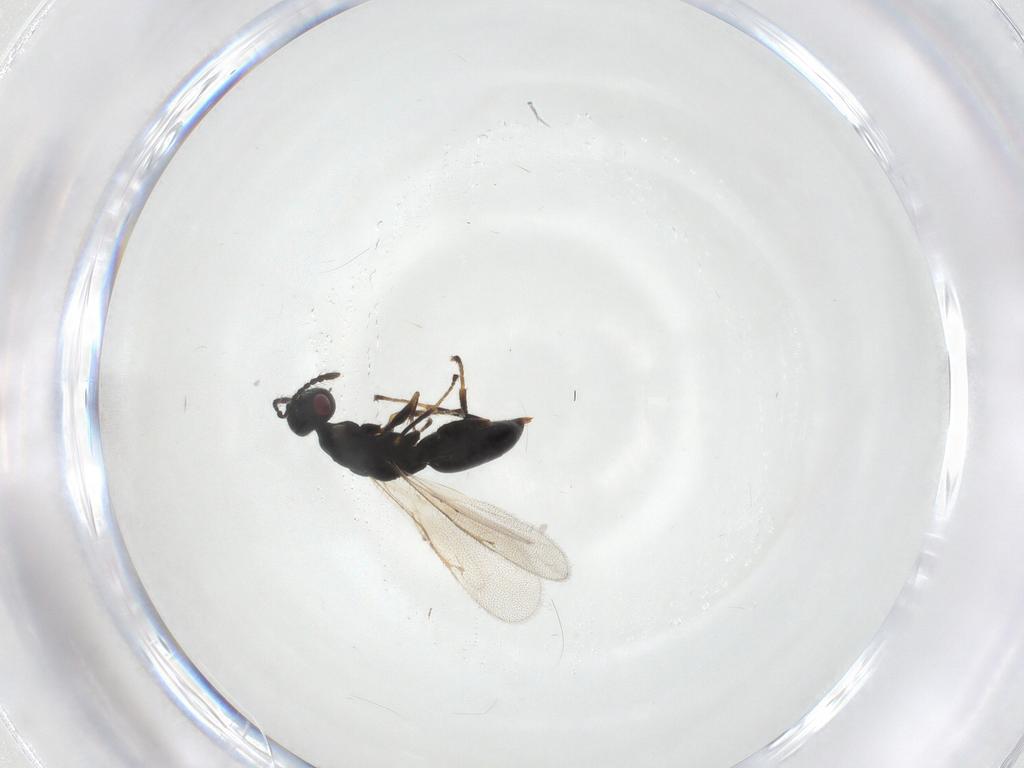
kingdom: Animalia
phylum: Arthropoda
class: Insecta
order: Hymenoptera
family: Eurytomidae
